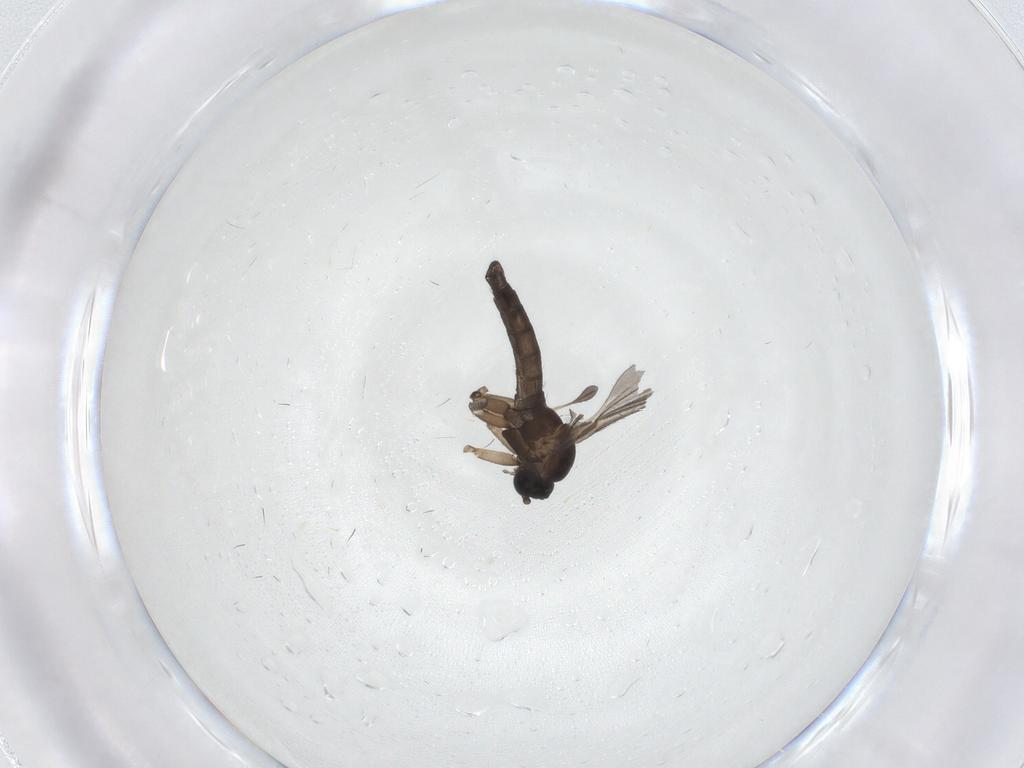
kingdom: Animalia
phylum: Arthropoda
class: Insecta
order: Diptera
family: Sciaridae
